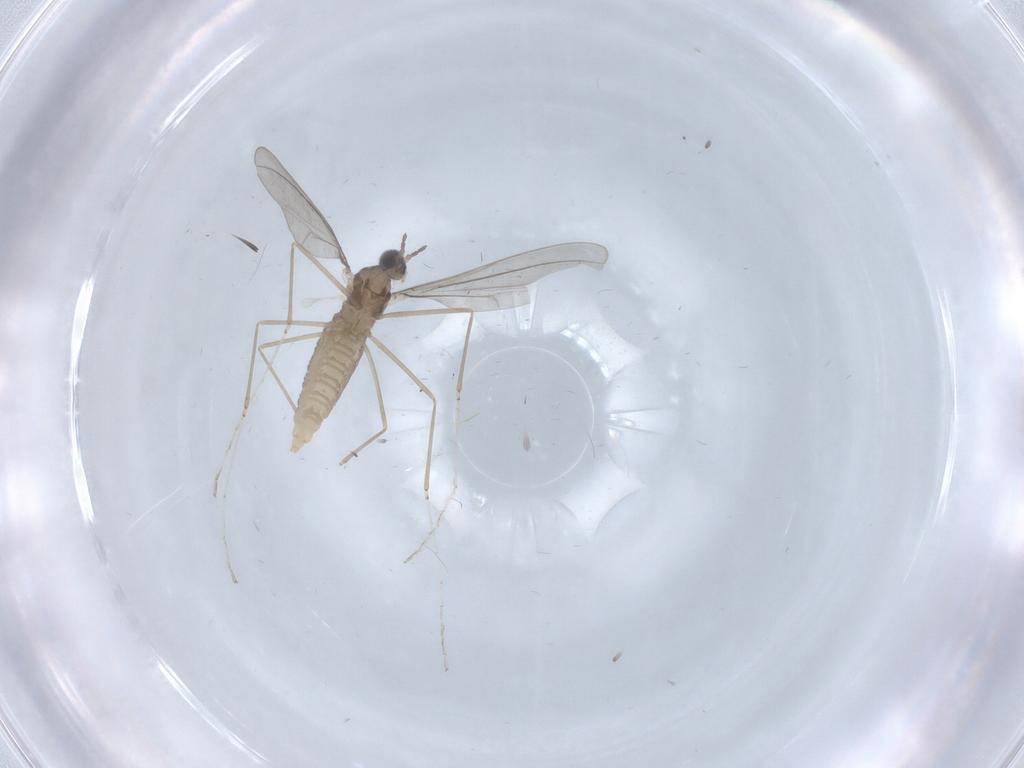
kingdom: Animalia
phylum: Arthropoda
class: Insecta
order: Diptera
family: Cecidomyiidae
